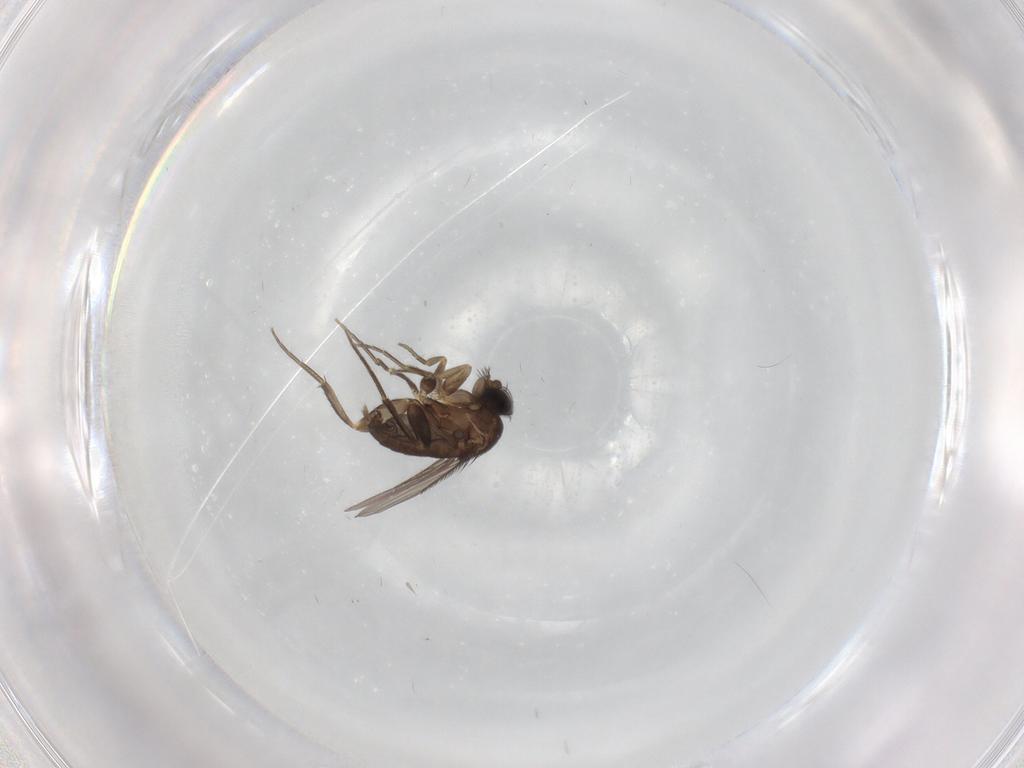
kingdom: Animalia
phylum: Arthropoda
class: Insecta
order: Diptera
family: Phoridae
